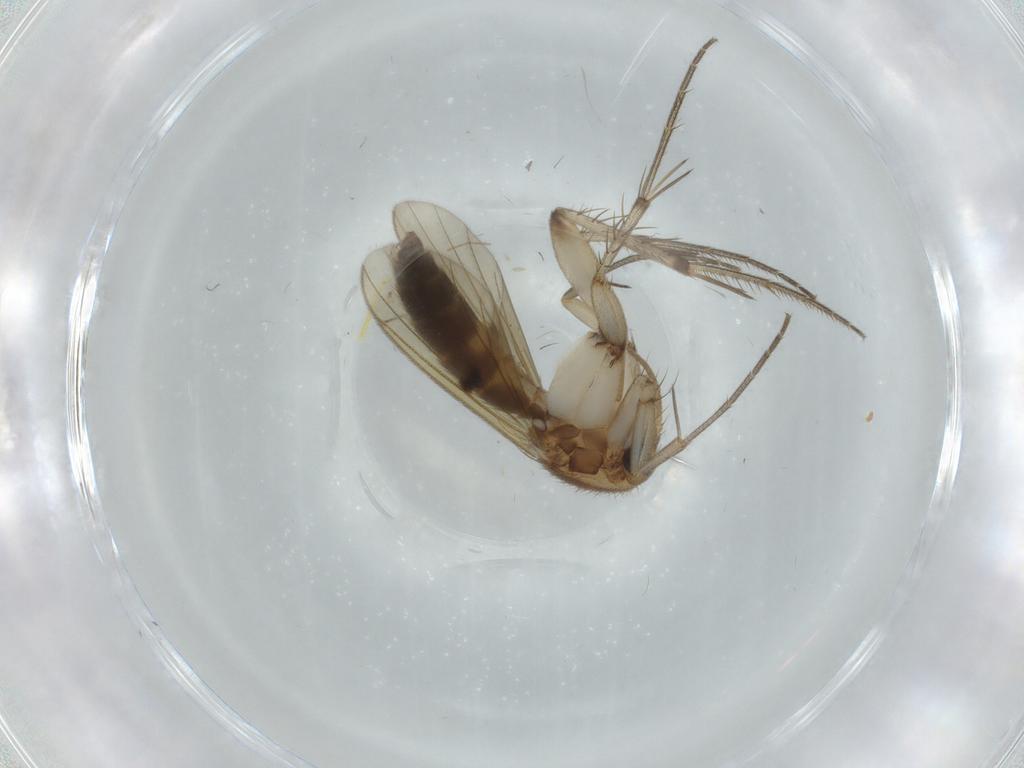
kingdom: Animalia
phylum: Arthropoda
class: Insecta
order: Diptera
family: Mycetophilidae
